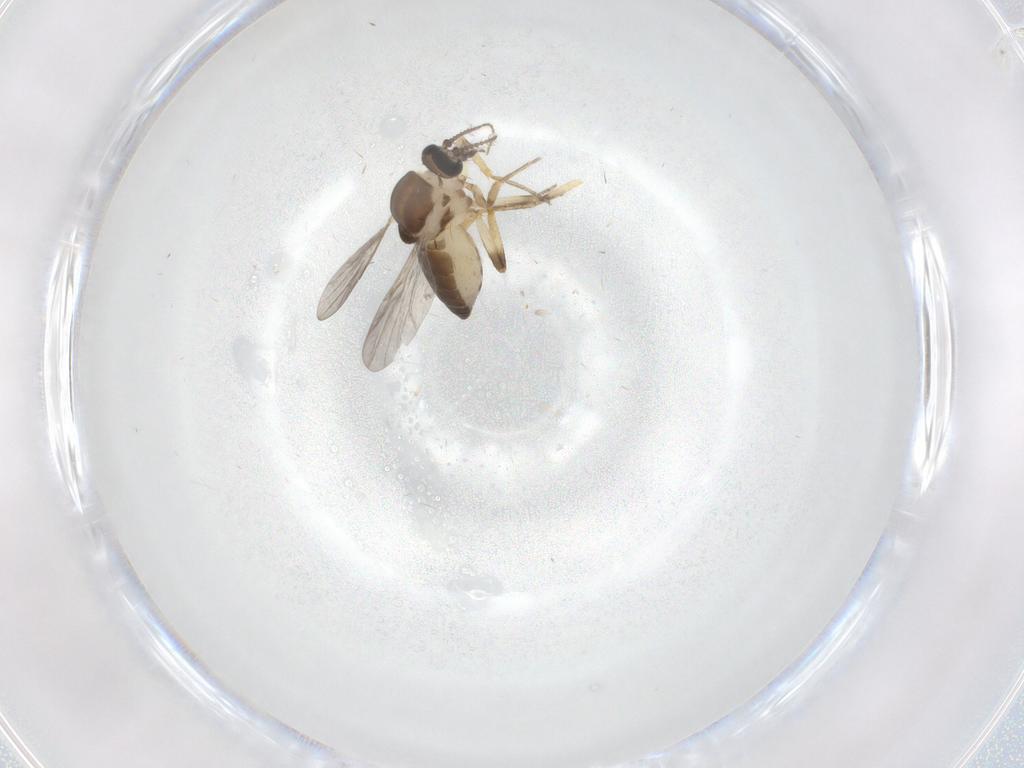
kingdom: Animalia
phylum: Arthropoda
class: Insecta
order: Diptera
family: Ceratopogonidae
